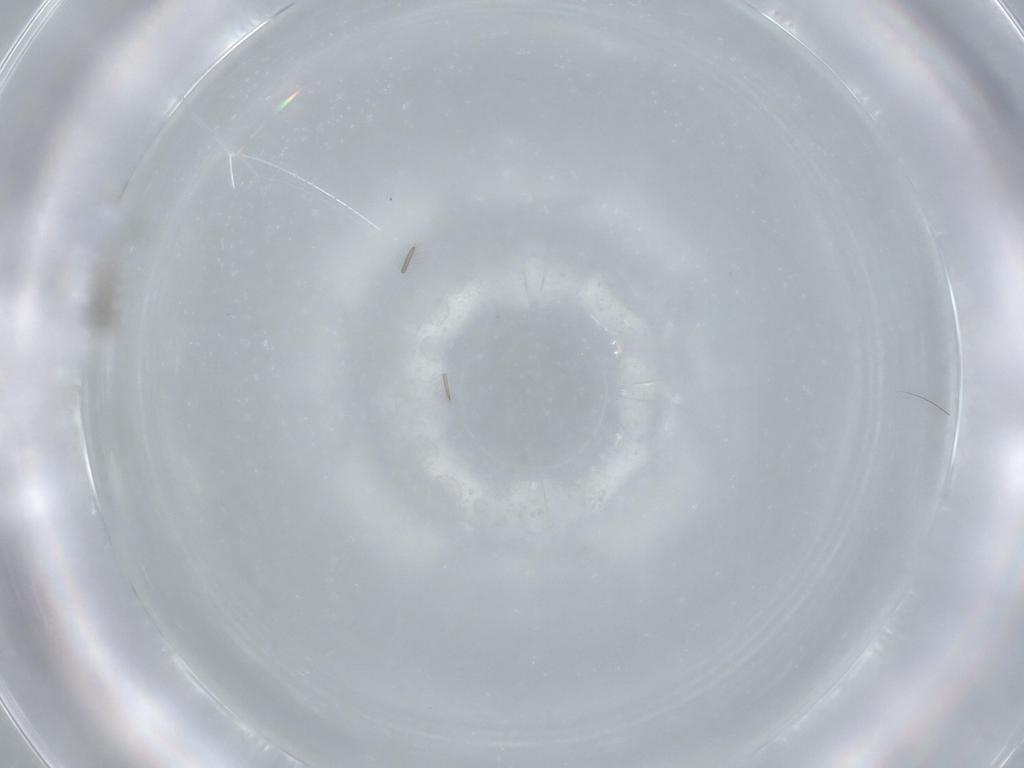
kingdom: Animalia
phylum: Arthropoda
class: Insecta
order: Hymenoptera
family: Mymaridae
